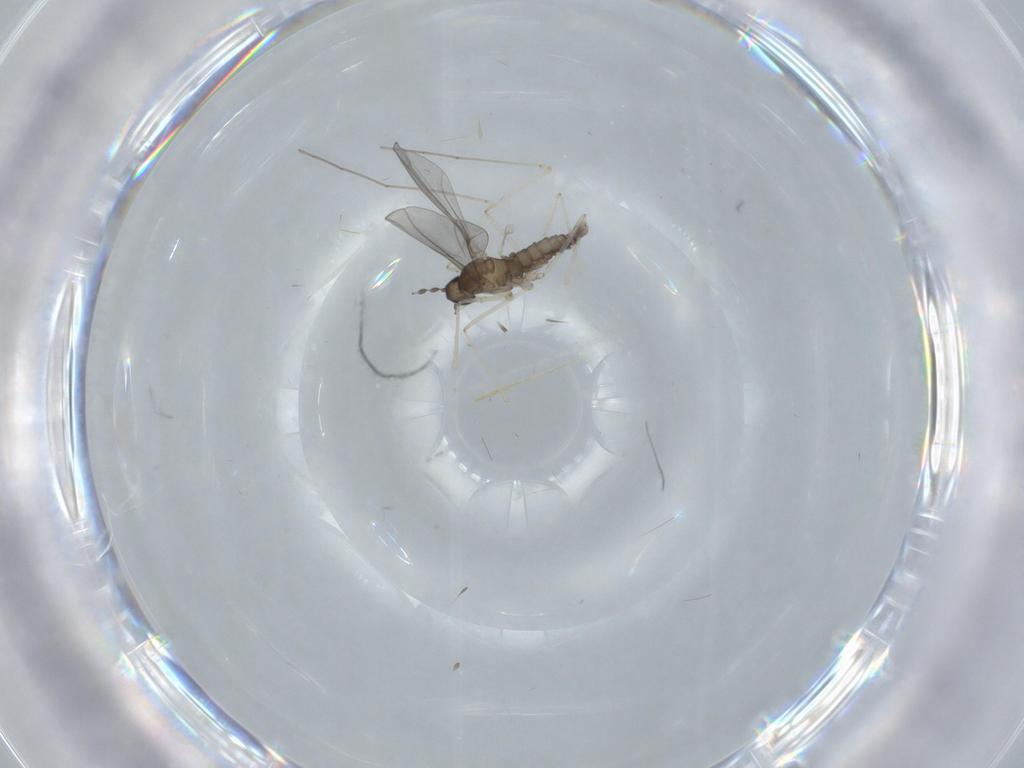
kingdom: Animalia
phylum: Arthropoda
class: Insecta
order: Diptera
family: Cecidomyiidae
